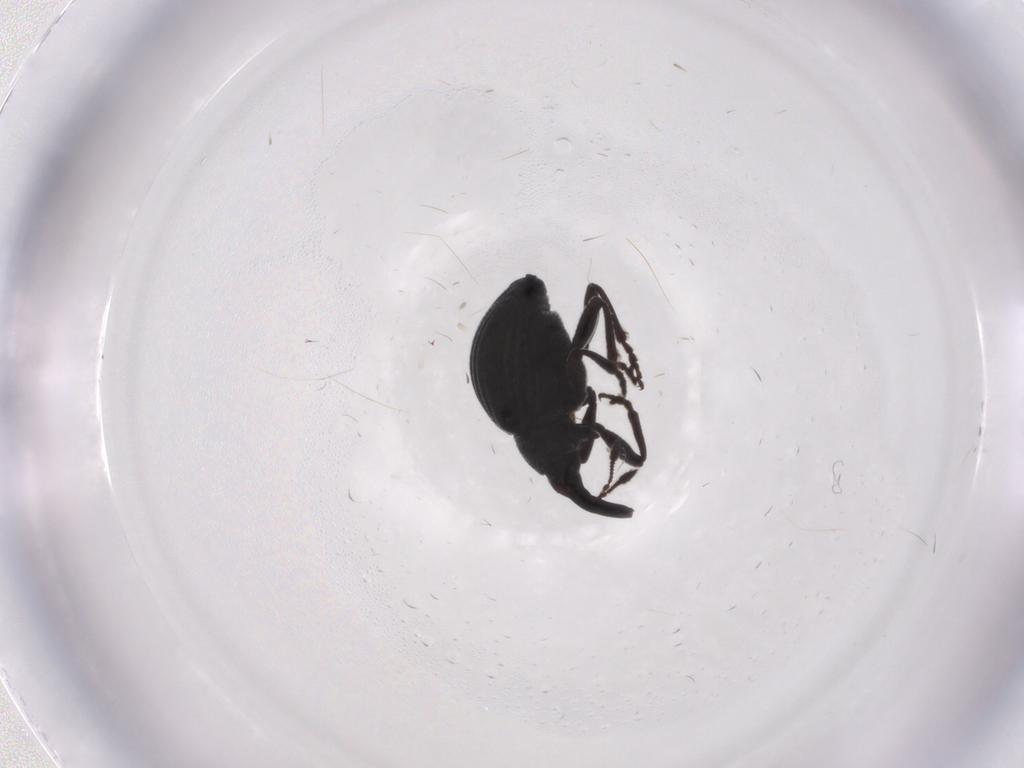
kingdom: Animalia
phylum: Arthropoda
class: Insecta
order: Coleoptera
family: Brentidae
